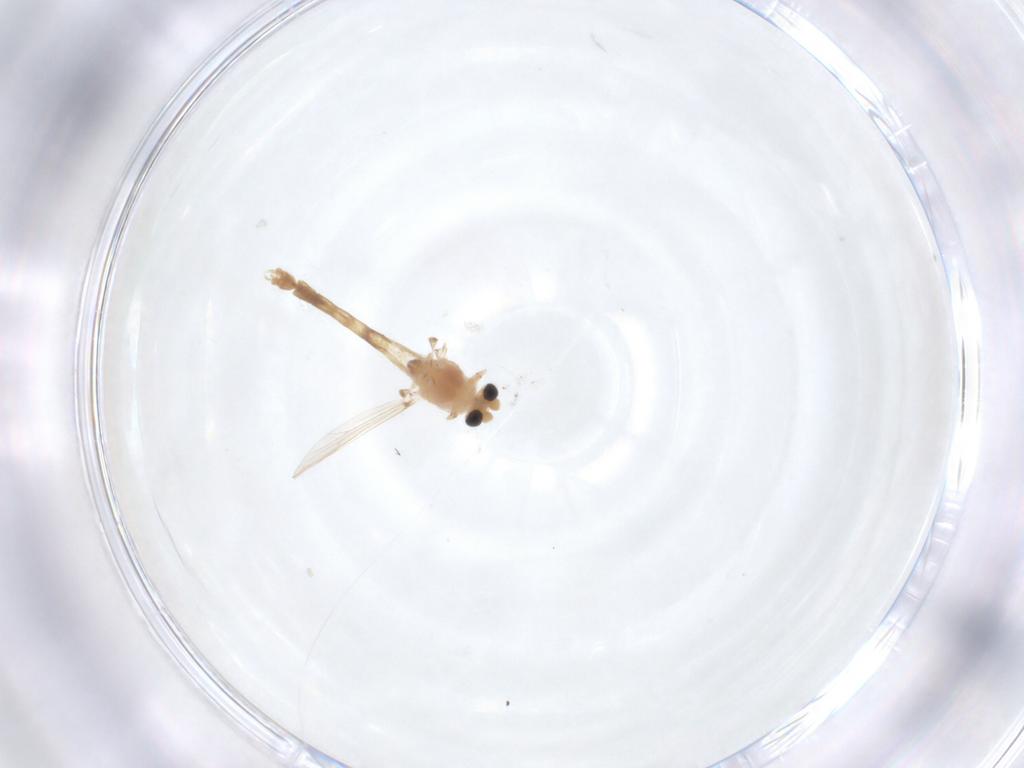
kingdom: Animalia
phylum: Arthropoda
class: Insecta
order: Diptera
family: Chironomidae
